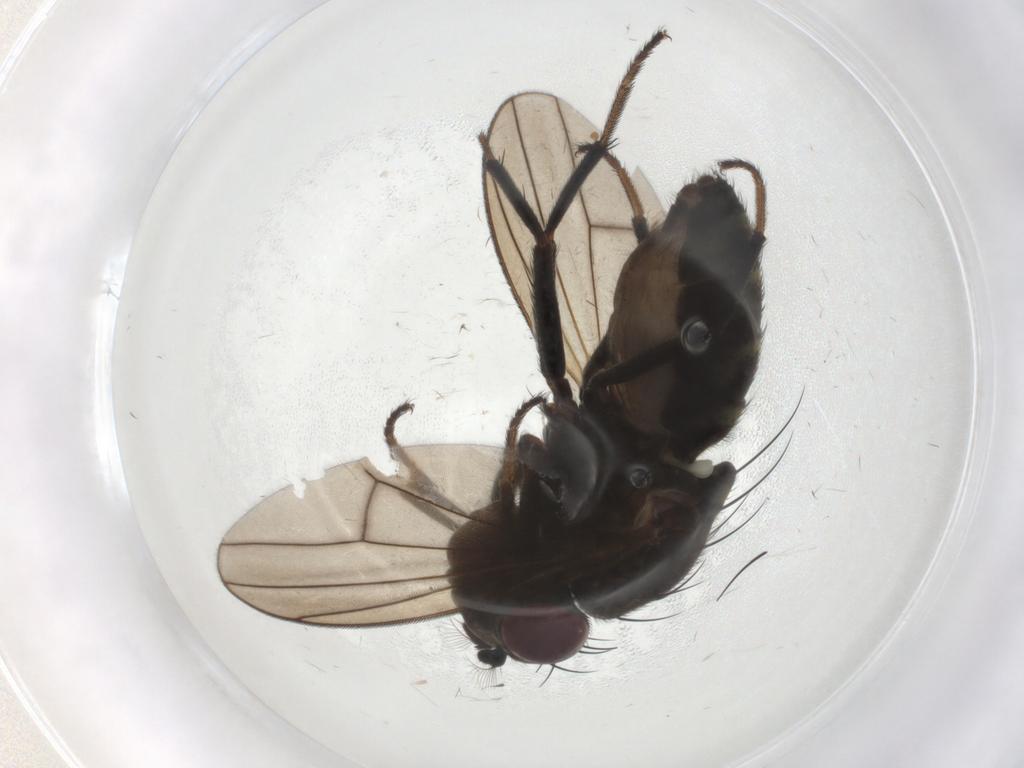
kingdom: Animalia
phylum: Arthropoda
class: Insecta
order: Diptera
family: Ephydridae
